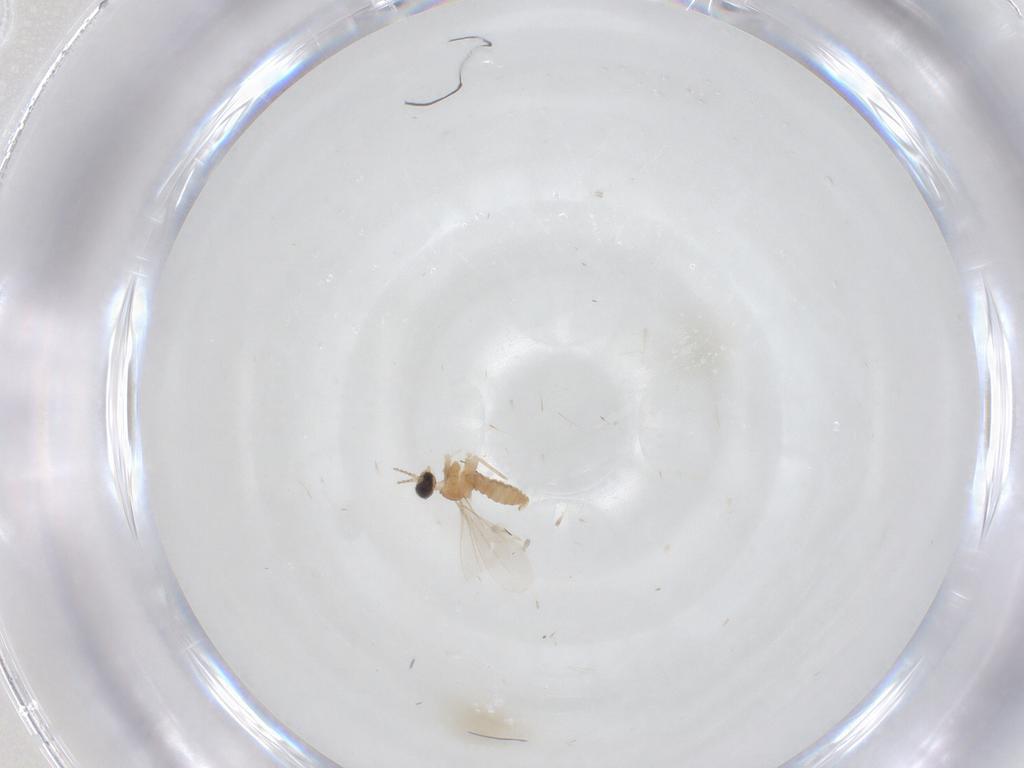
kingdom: Animalia
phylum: Arthropoda
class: Insecta
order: Diptera
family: Cecidomyiidae
